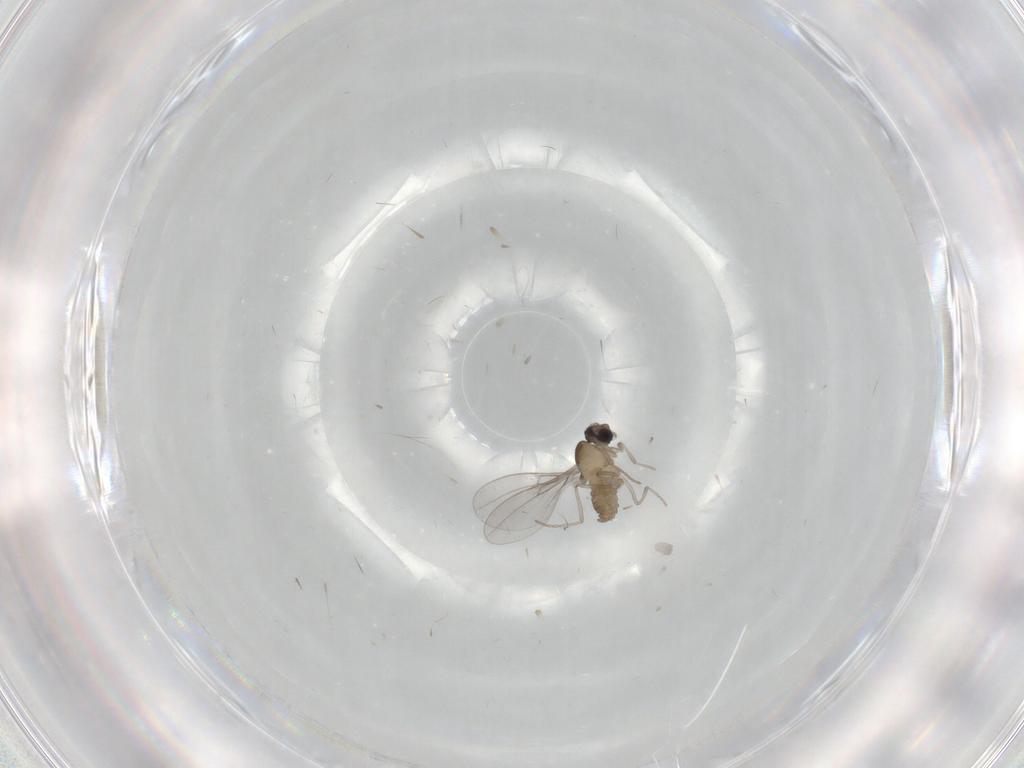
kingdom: Animalia
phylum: Arthropoda
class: Insecta
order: Diptera
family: Cecidomyiidae
